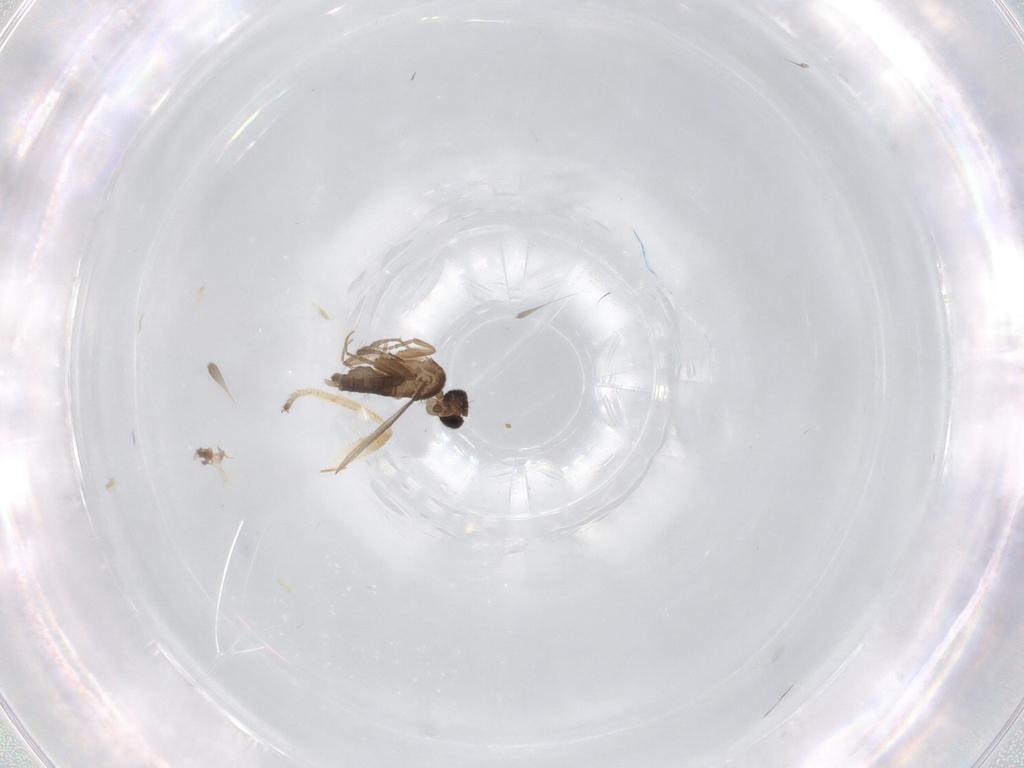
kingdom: Animalia
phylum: Arthropoda
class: Insecta
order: Diptera
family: Clusiidae
